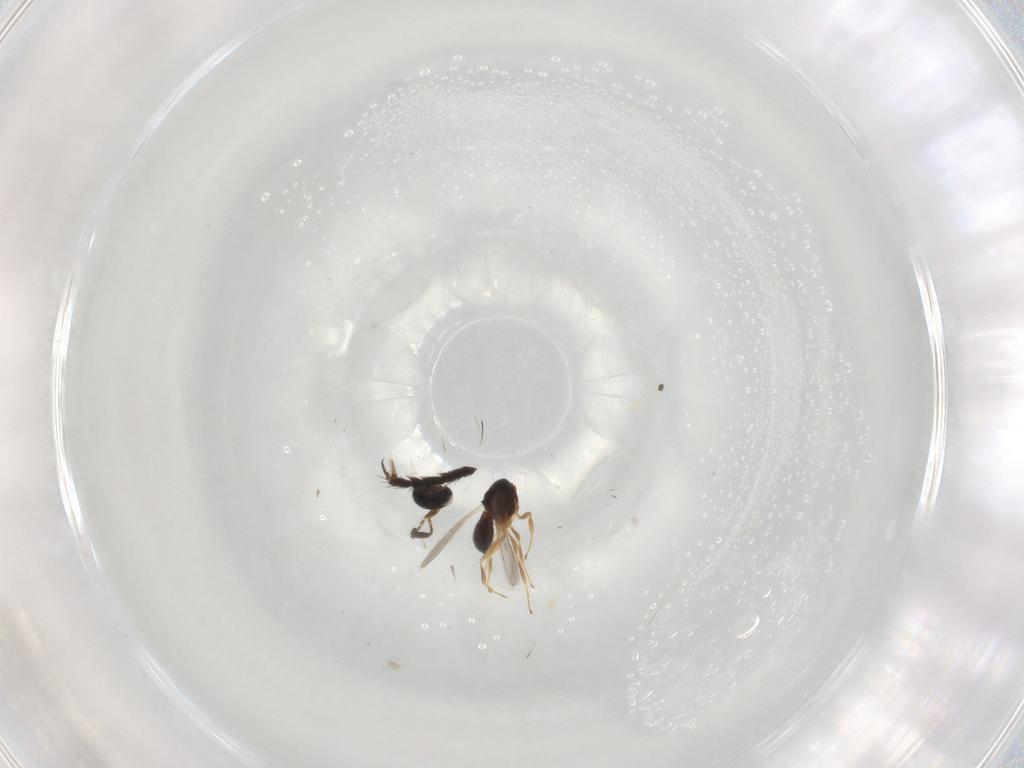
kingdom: Animalia
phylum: Arthropoda
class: Insecta
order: Hymenoptera
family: Scelionidae
